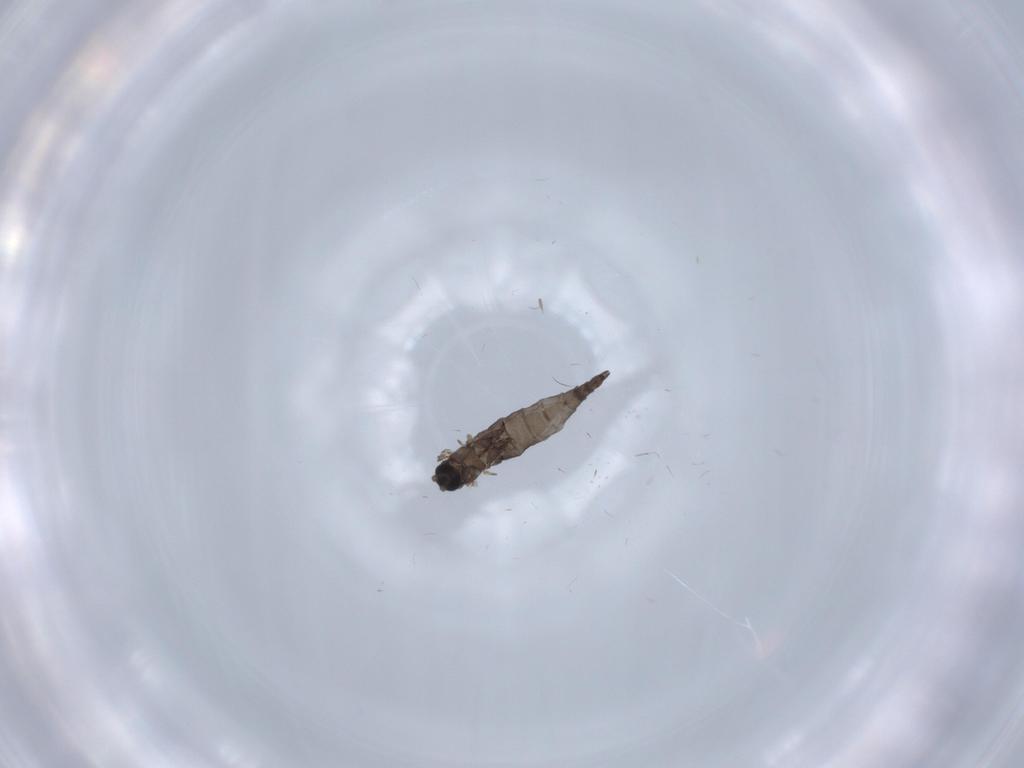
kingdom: Animalia
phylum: Arthropoda
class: Insecta
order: Diptera
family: Sciaridae
